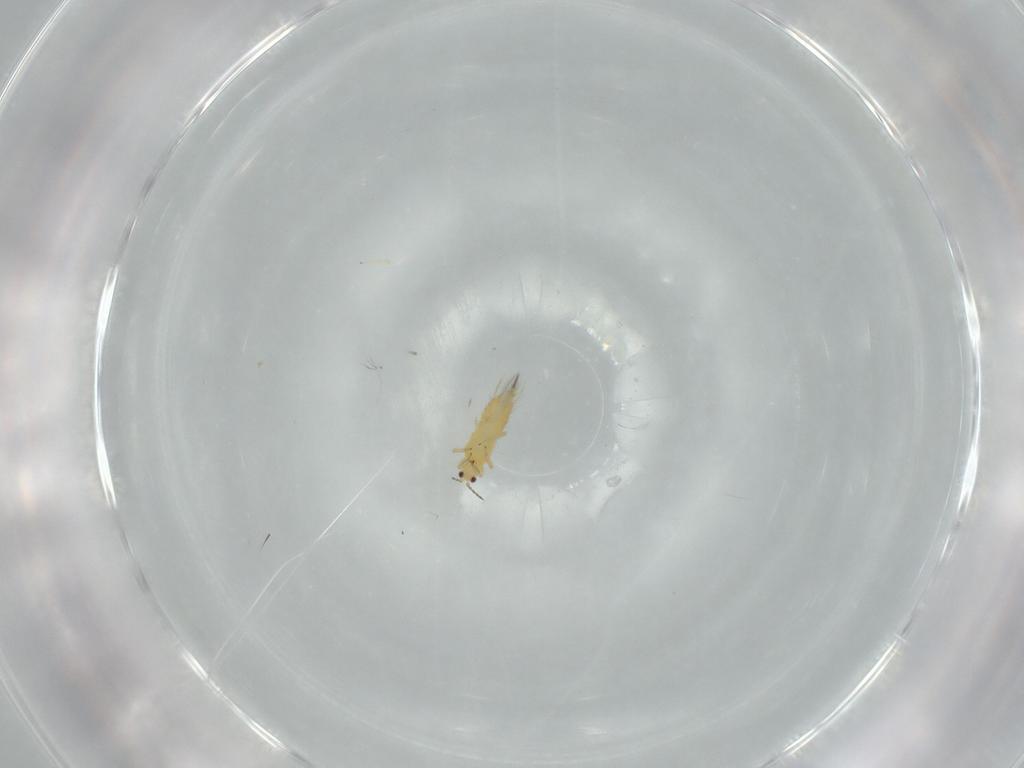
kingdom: Animalia
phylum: Arthropoda
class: Insecta
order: Thysanoptera
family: Thripidae
